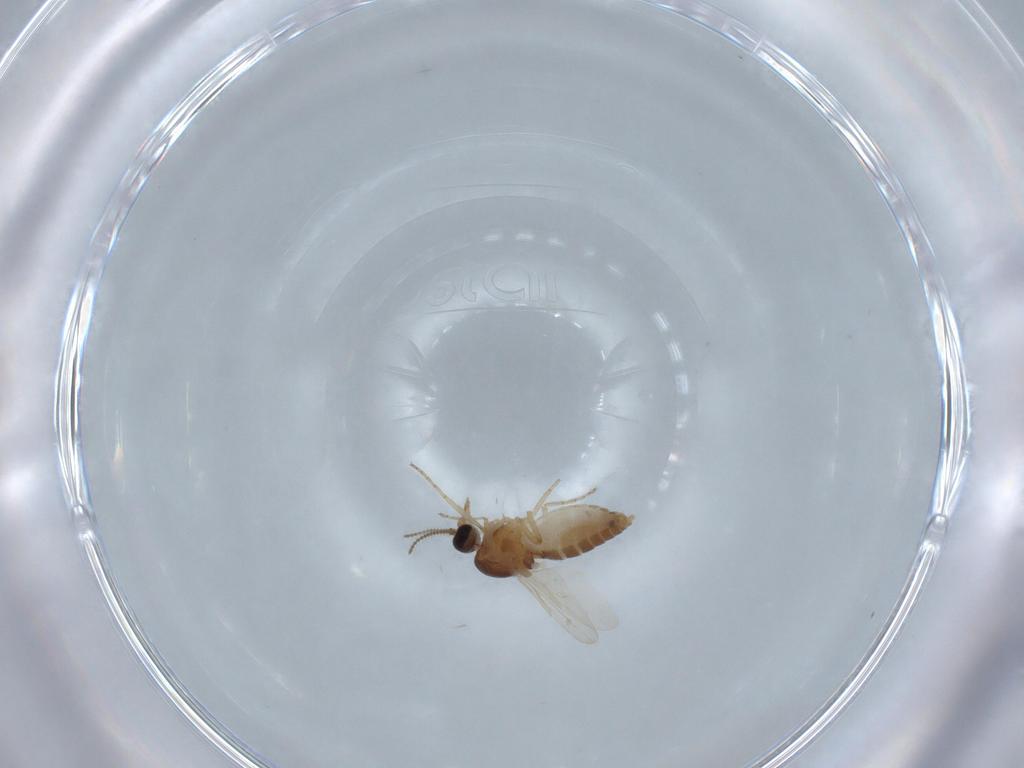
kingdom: Animalia
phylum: Arthropoda
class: Insecta
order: Diptera
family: Ceratopogonidae
